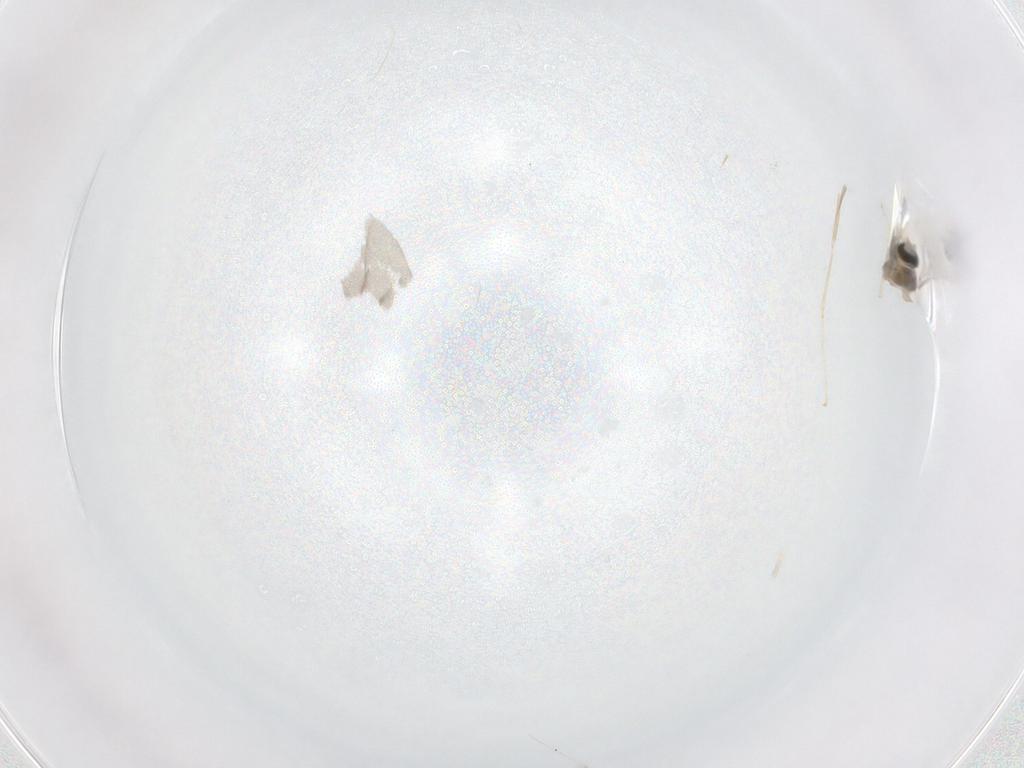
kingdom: Animalia
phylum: Arthropoda
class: Insecta
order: Diptera
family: Cecidomyiidae
